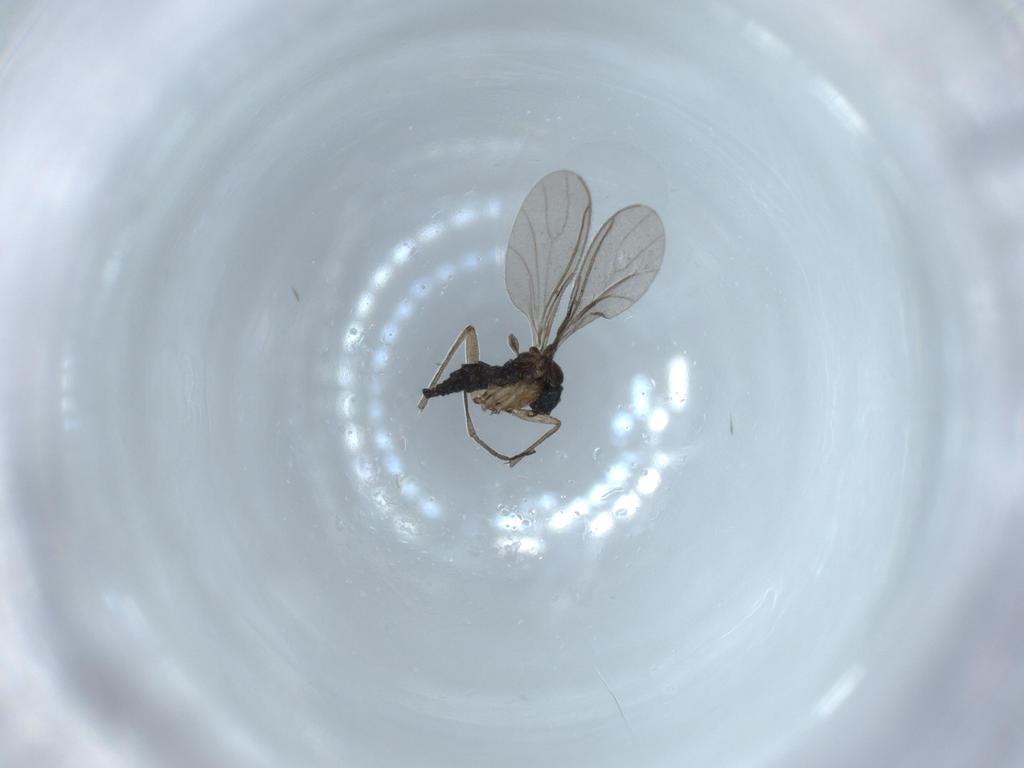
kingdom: Animalia
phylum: Arthropoda
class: Insecta
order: Diptera
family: Sciaridae
